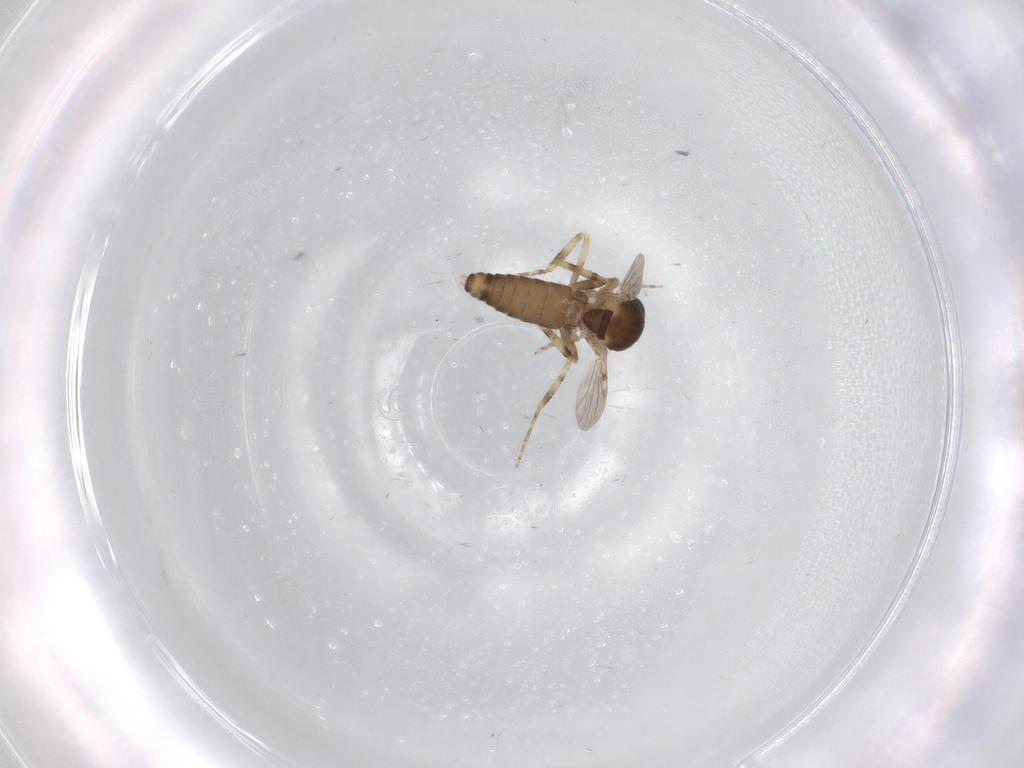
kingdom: Animalia
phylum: Arthropoda
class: Insecta
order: Diptera
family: Ceratopogonidae
